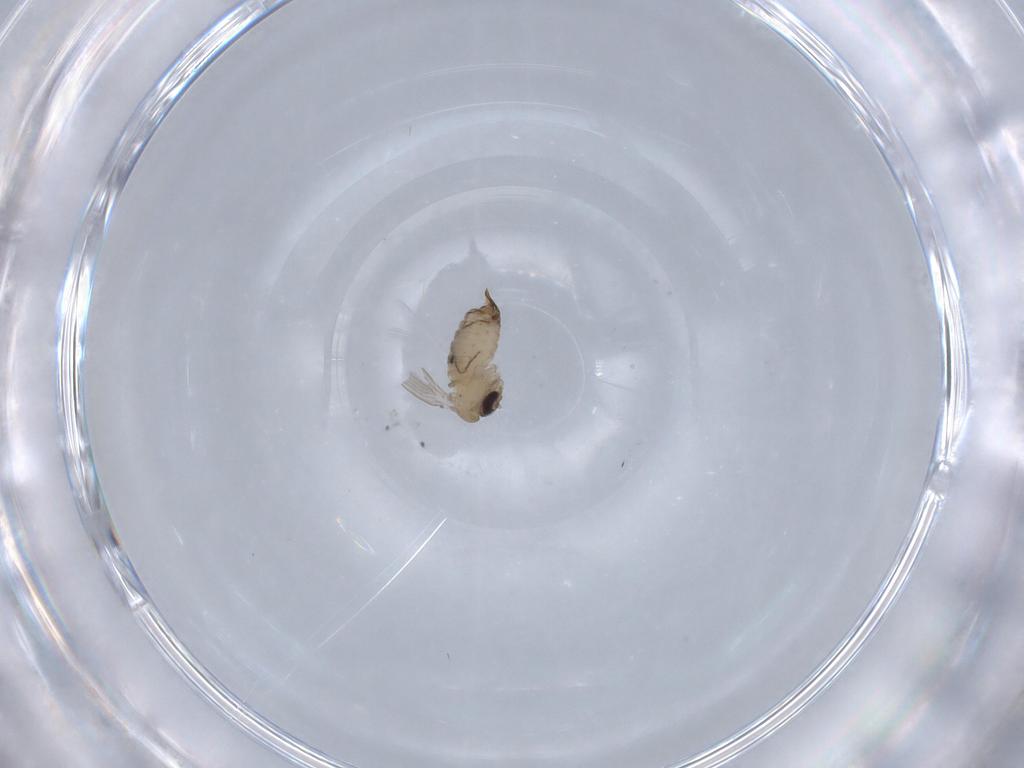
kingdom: Animalia
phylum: Arthropoda
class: Insecta
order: Diptera
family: Psychodidae
